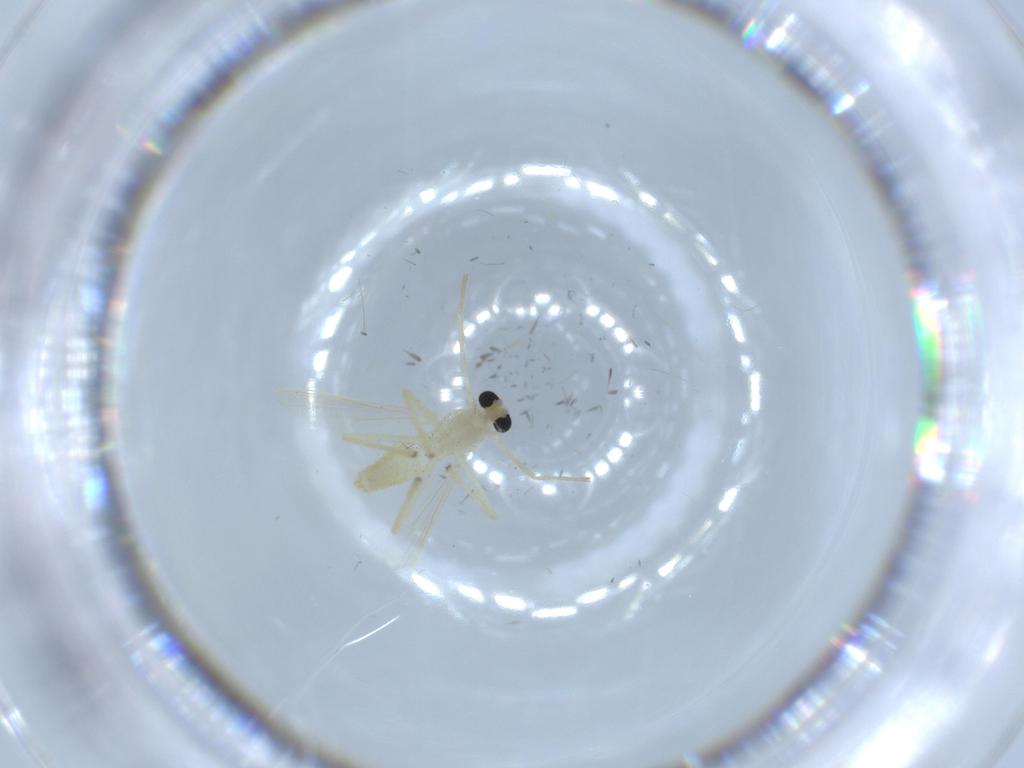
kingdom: Animalia
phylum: Arthropoda
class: Insecta
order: Diptera
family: Chironomidae
